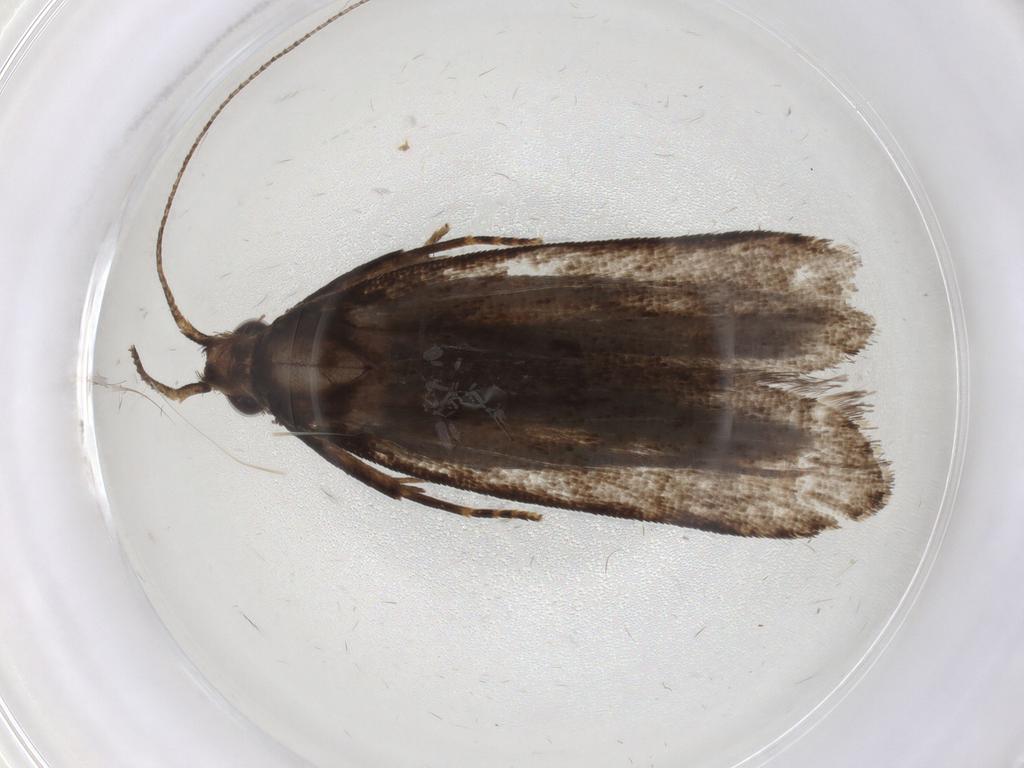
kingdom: Animalia
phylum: Arthropoda
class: Insecta
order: Lepidoptera
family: Gelechiidae
